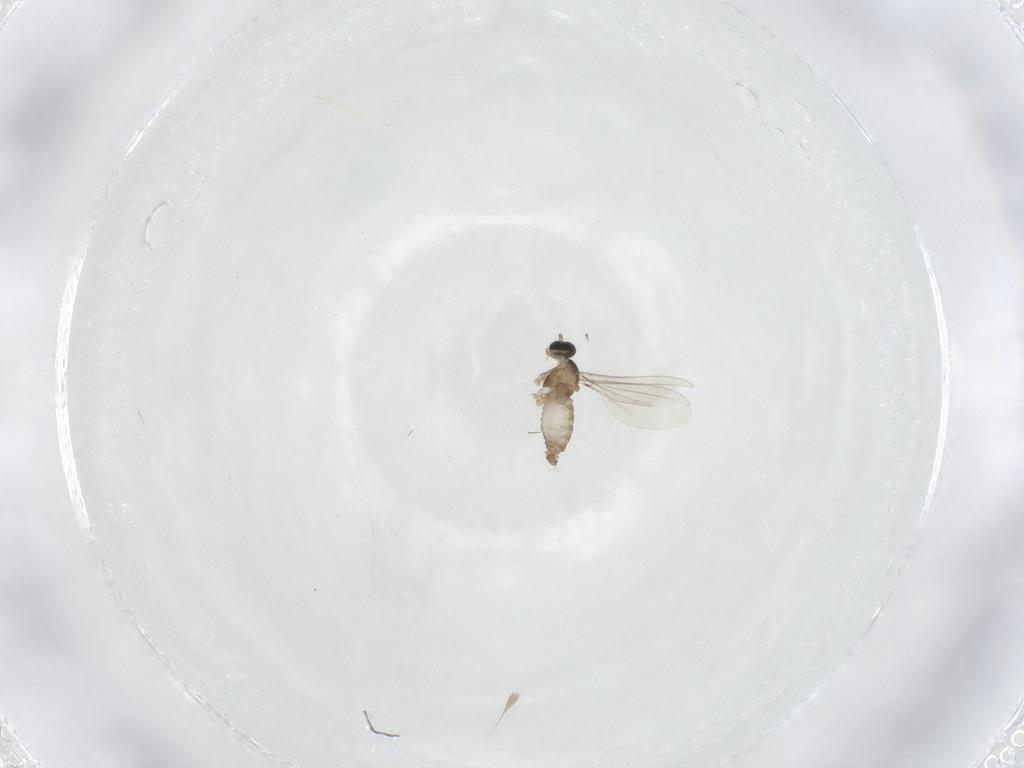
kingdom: Animalia
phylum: Arthropoda
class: Insecta
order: Diptera
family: Cecidomyiidae
